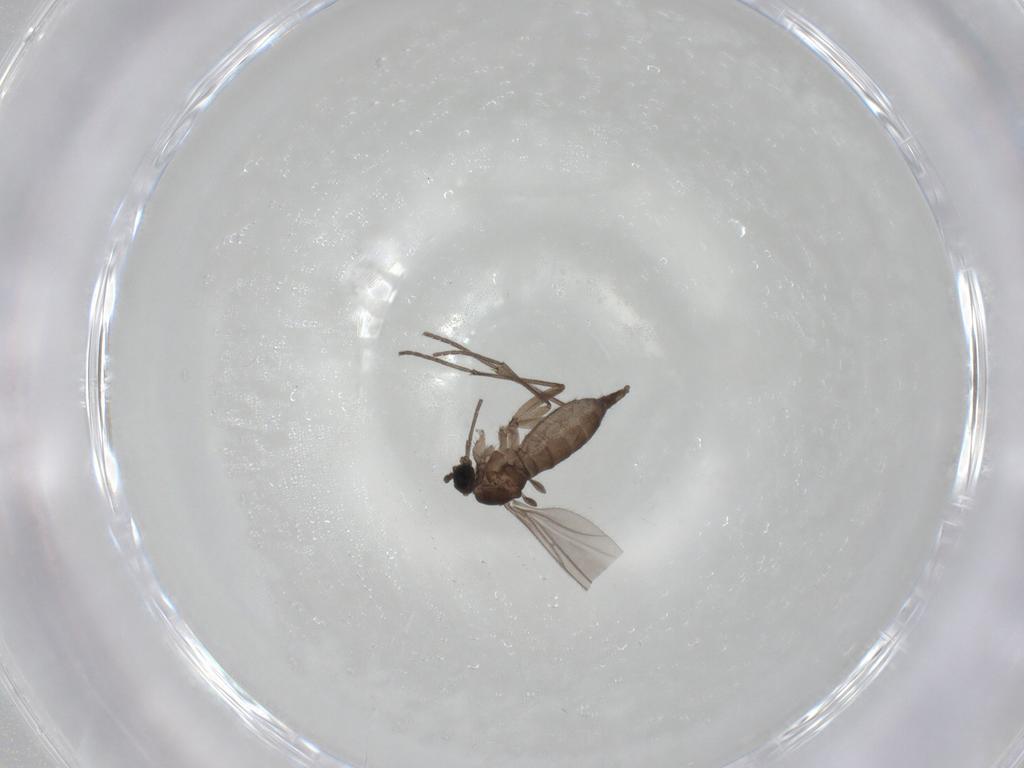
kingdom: Animalia
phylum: Arthropoda
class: Insecta
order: Diptera
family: Sciaridae
